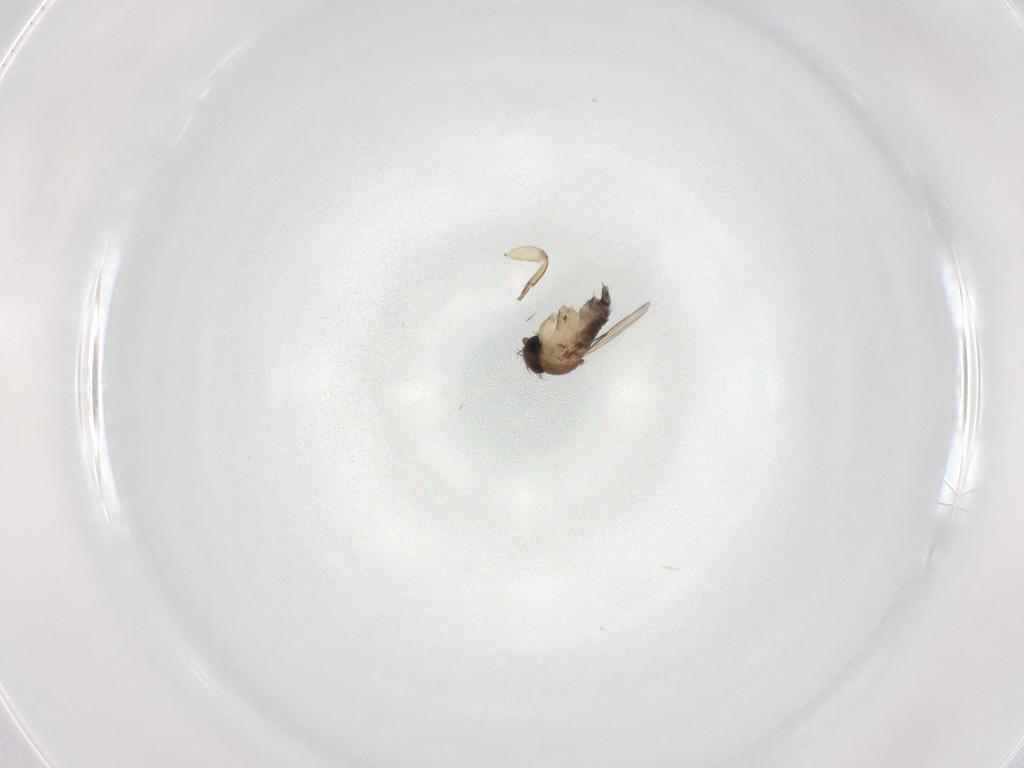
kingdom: Animalia
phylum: Arthropoda
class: Insecta
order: Diptera
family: Phoridae
